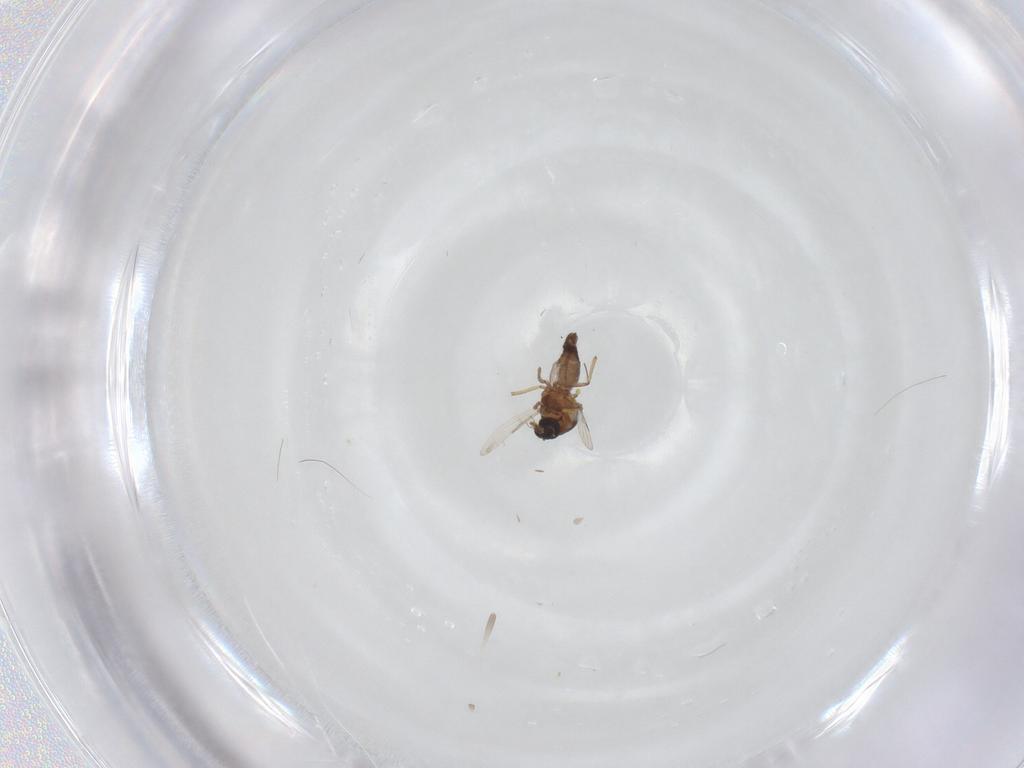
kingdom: Animalia
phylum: Arthropoda
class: Insecta
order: Diptera
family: Ceratopogonidae
